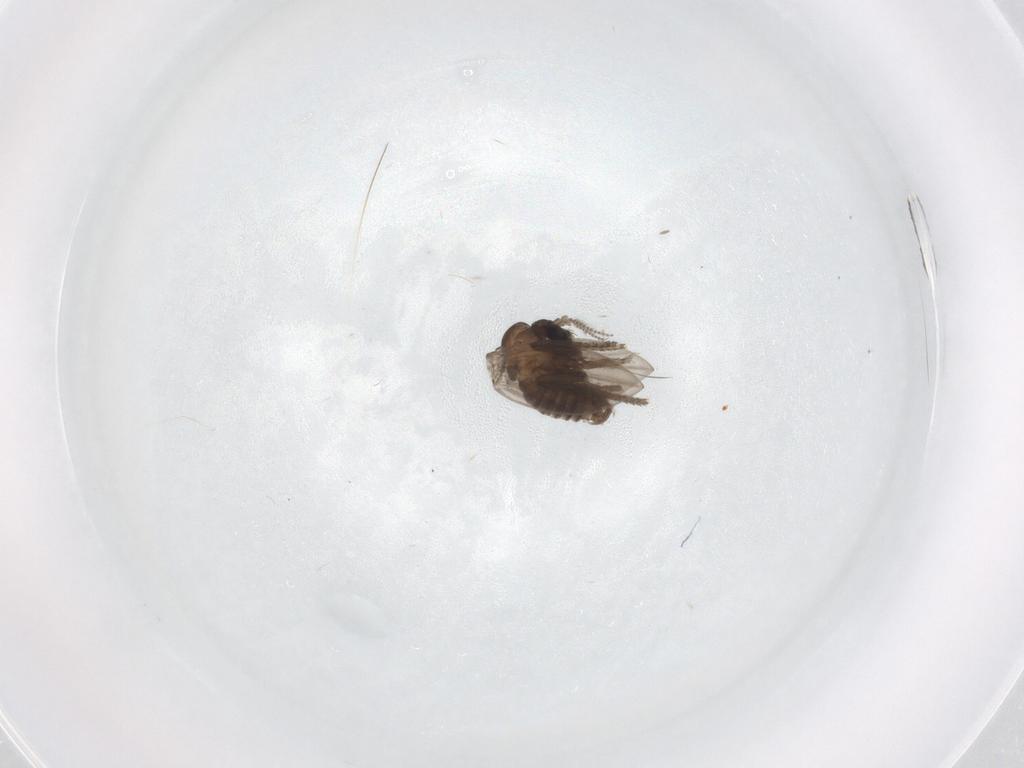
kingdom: Animalia
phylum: Arthropoda
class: Insecta
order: Diptera
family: Psychodidae
